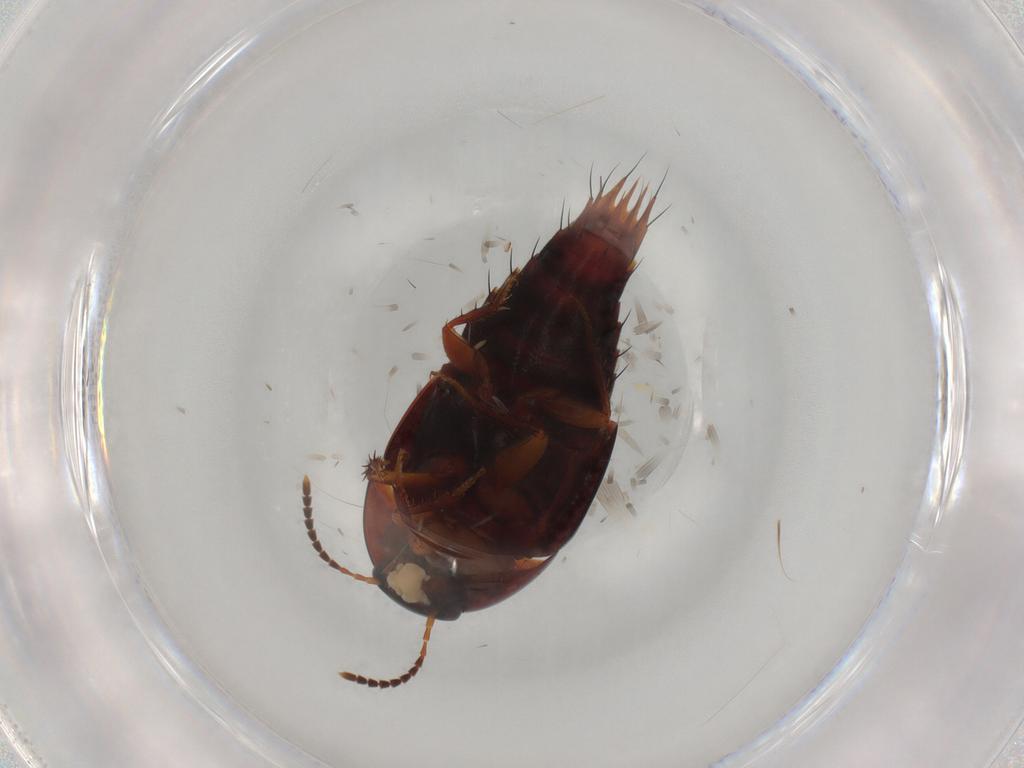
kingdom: Animalia
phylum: Arthropoda
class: Insecta
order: Coleoptera
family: Staphylinidae
